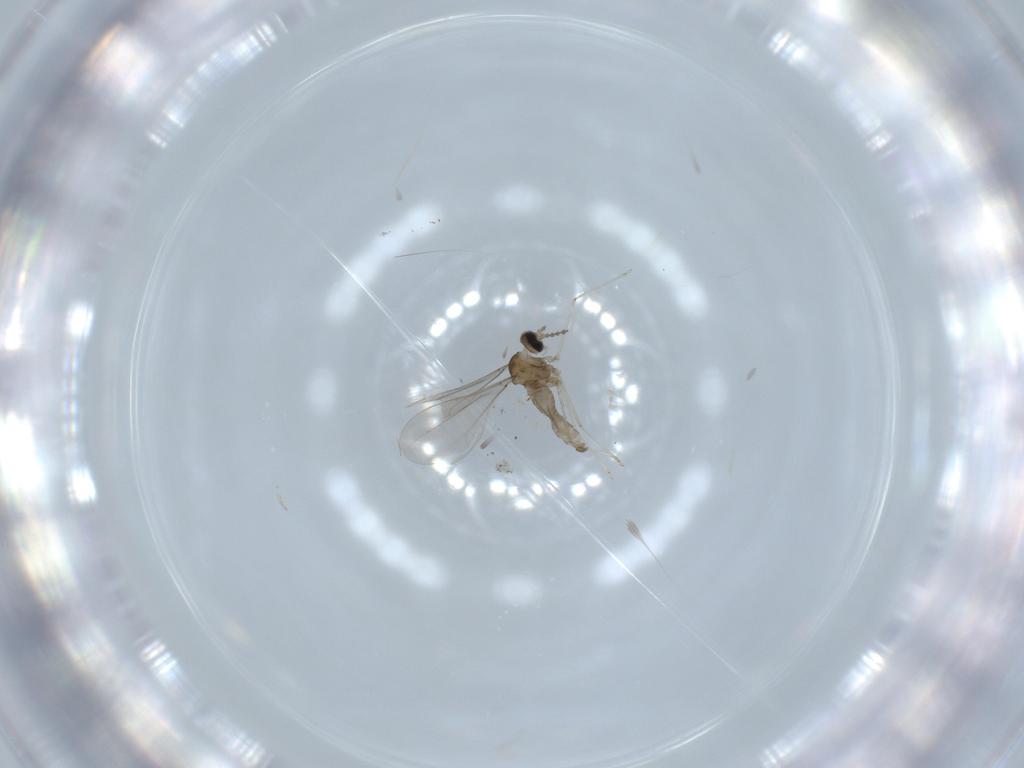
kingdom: Animalia
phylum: Arthropoda
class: Insecta
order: Diptera
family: Cecidomyiidae
